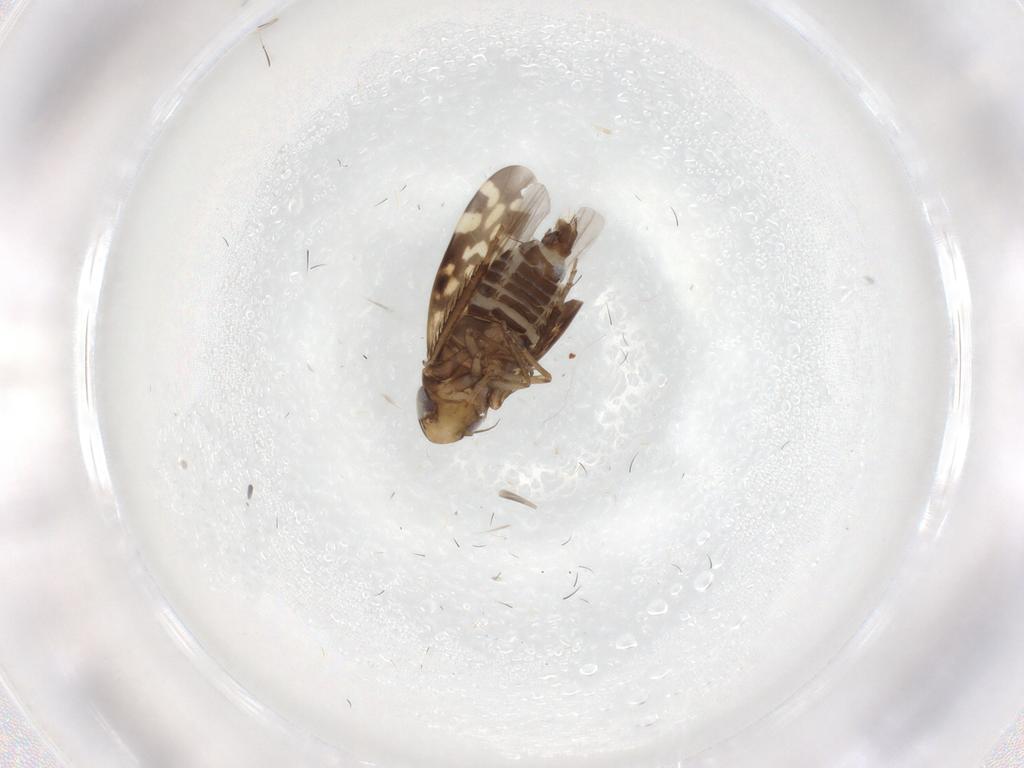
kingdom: Animalia
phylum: Arthropoda
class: Insecta
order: Hemiptera
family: Cicadellidae
